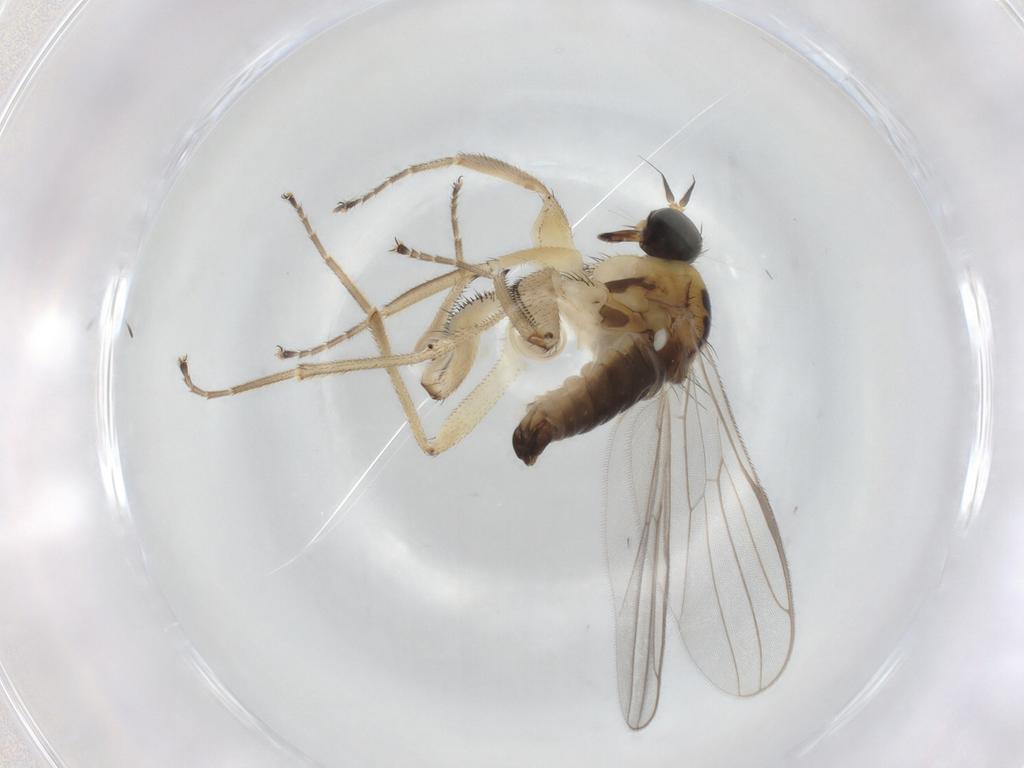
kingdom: Animalia
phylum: Arthropoda
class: Insecta
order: Diptera
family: Hybotidae
